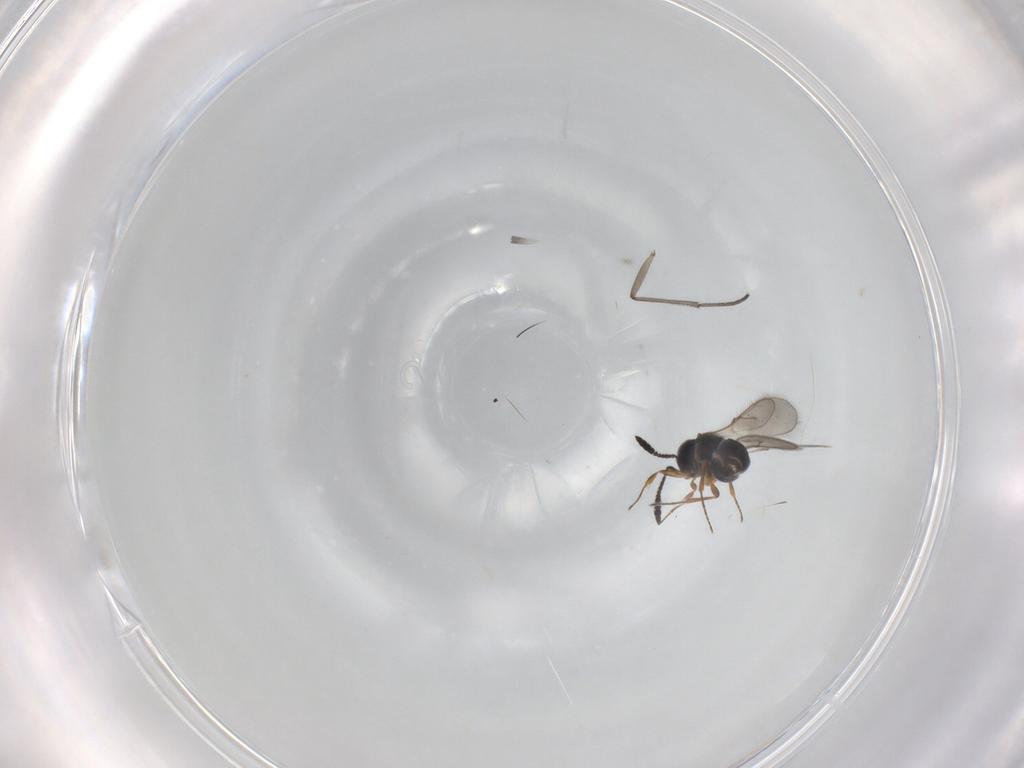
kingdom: Animalia
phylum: Arthropoda
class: Insecta
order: Hymenoptera
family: Scelionidae
